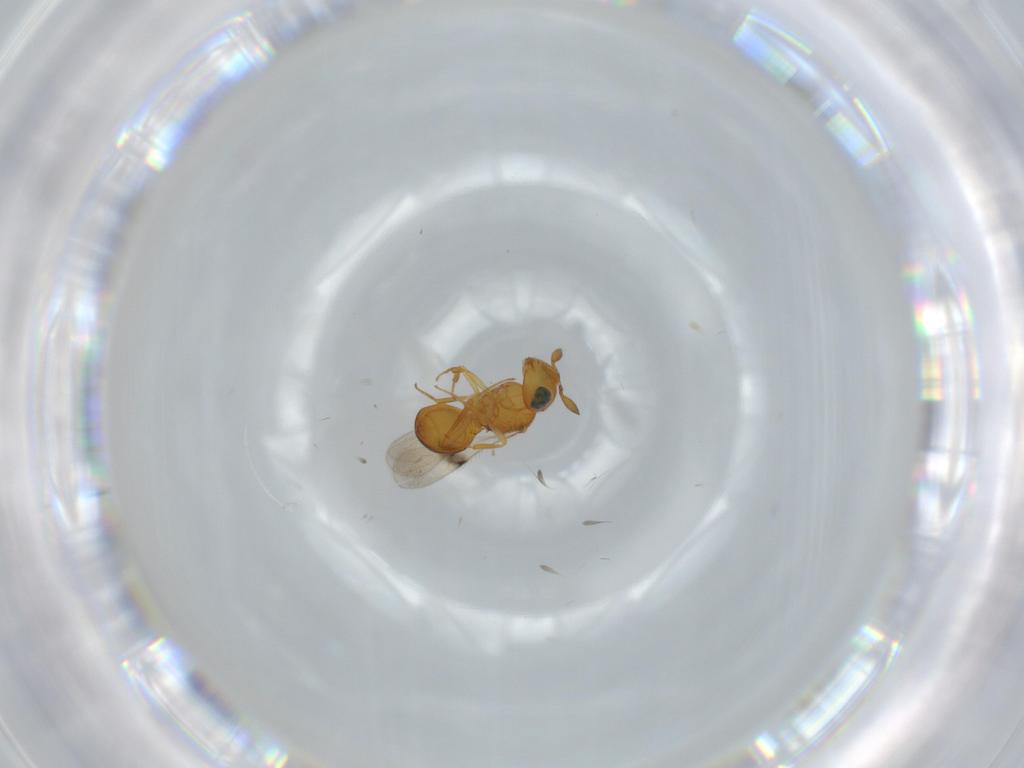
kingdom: Animalia
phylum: Arthropoda
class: Insecta
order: Hymenoptera
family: Scelionidae
